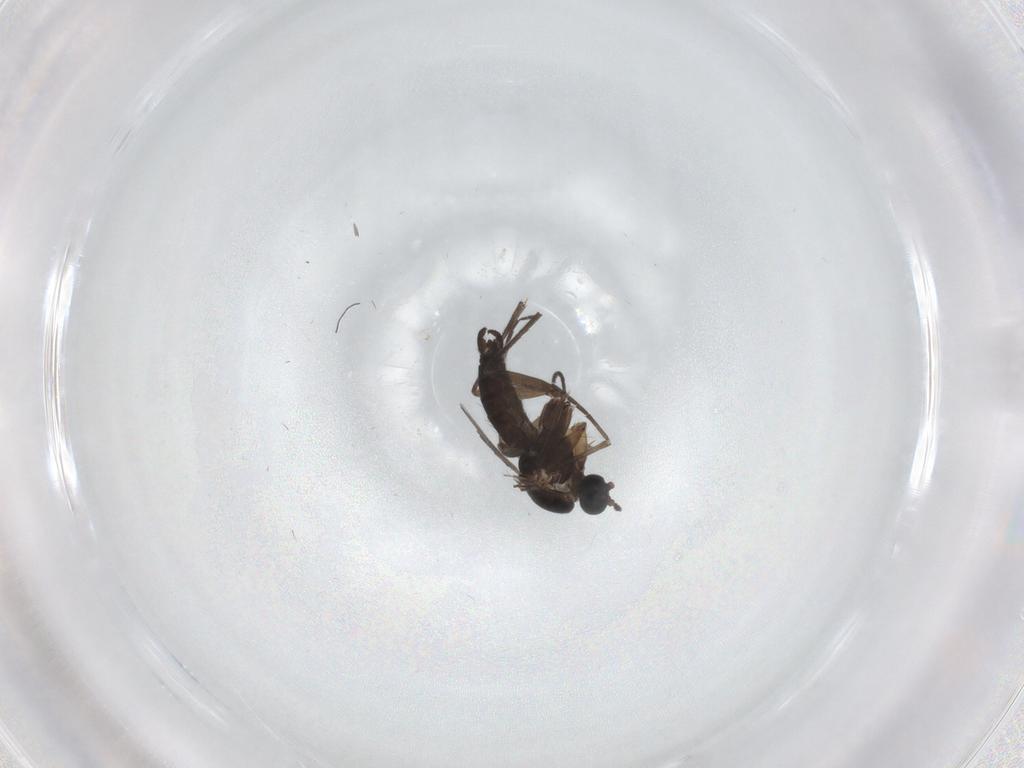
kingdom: Animalia
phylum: Arthropoda
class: Insecta
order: Diptera
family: Sciaridae
